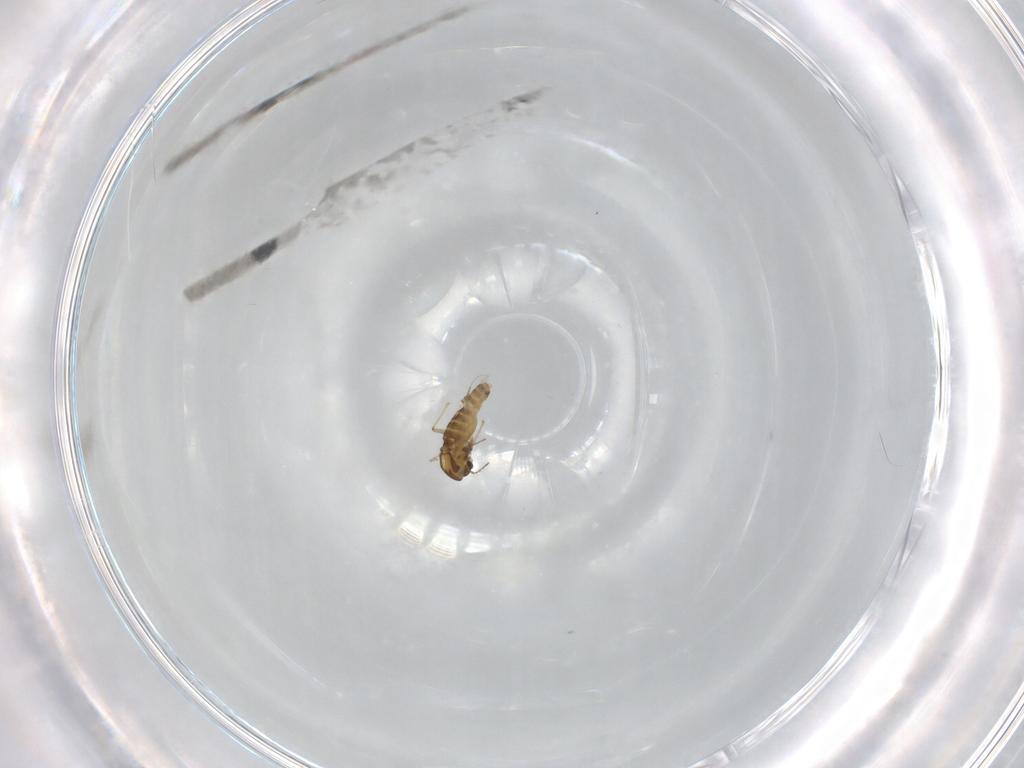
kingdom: Animalia
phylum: Arthropoda
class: Insecta
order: Diptera
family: Chironomidae
